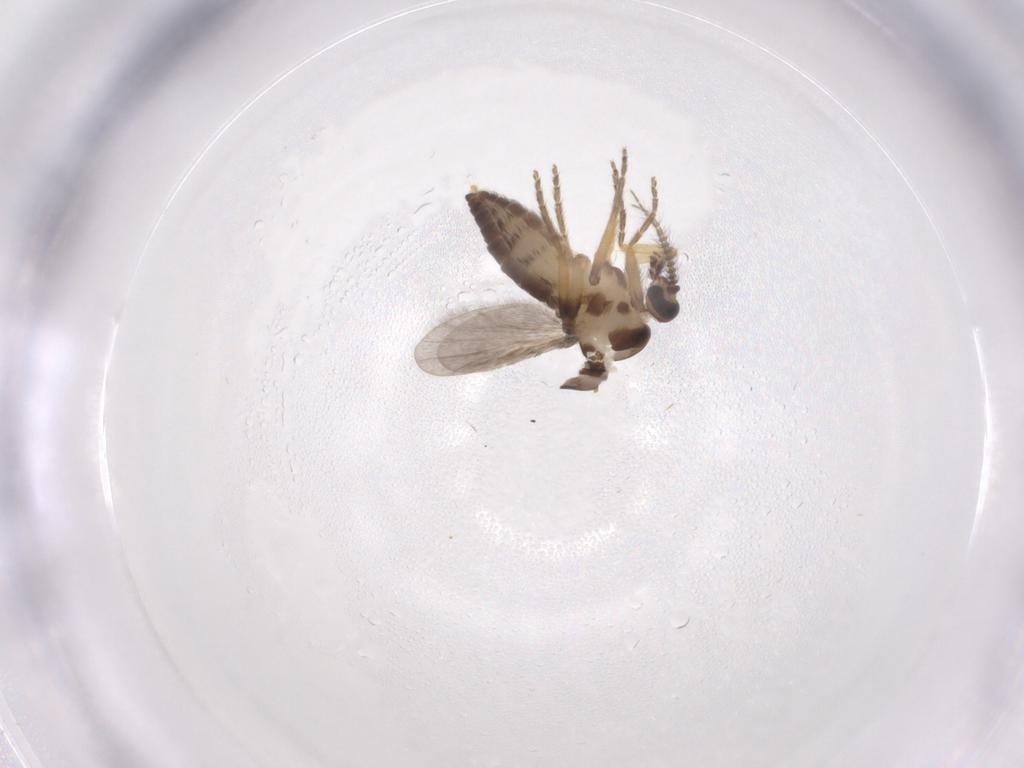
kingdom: Animalia
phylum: Arthropoda
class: Insecta
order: Diptera
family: Ceratopogonidae
